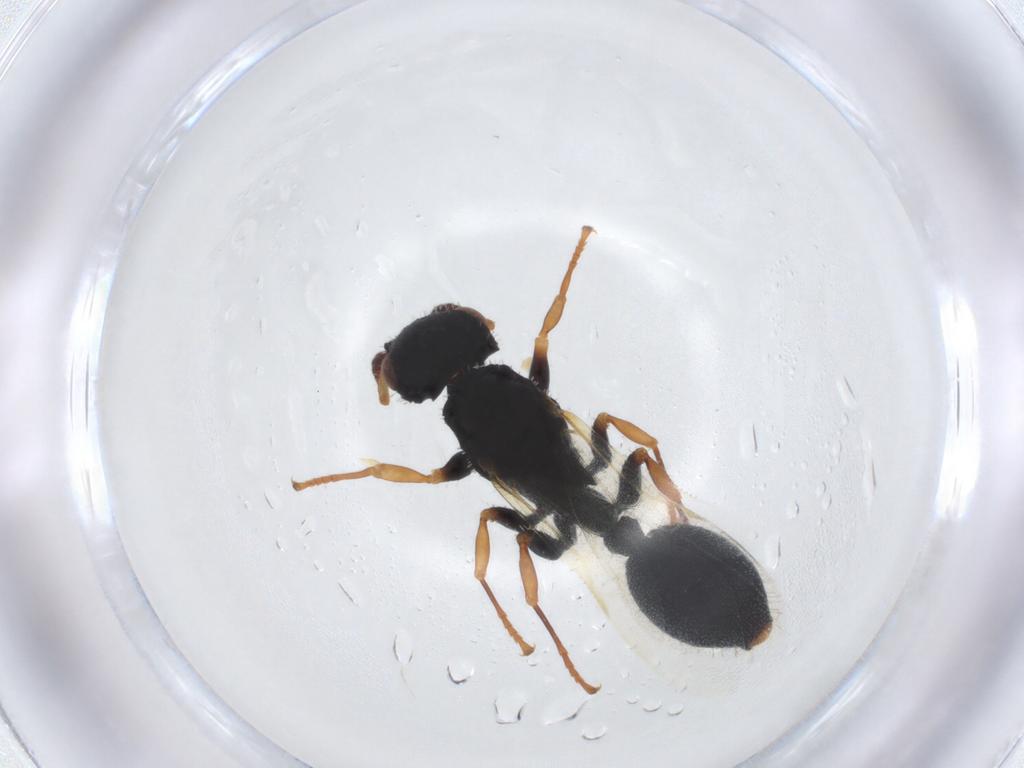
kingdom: Animalia
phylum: Arthropoda
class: Insecta
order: Hymenoptera
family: Formicidae
